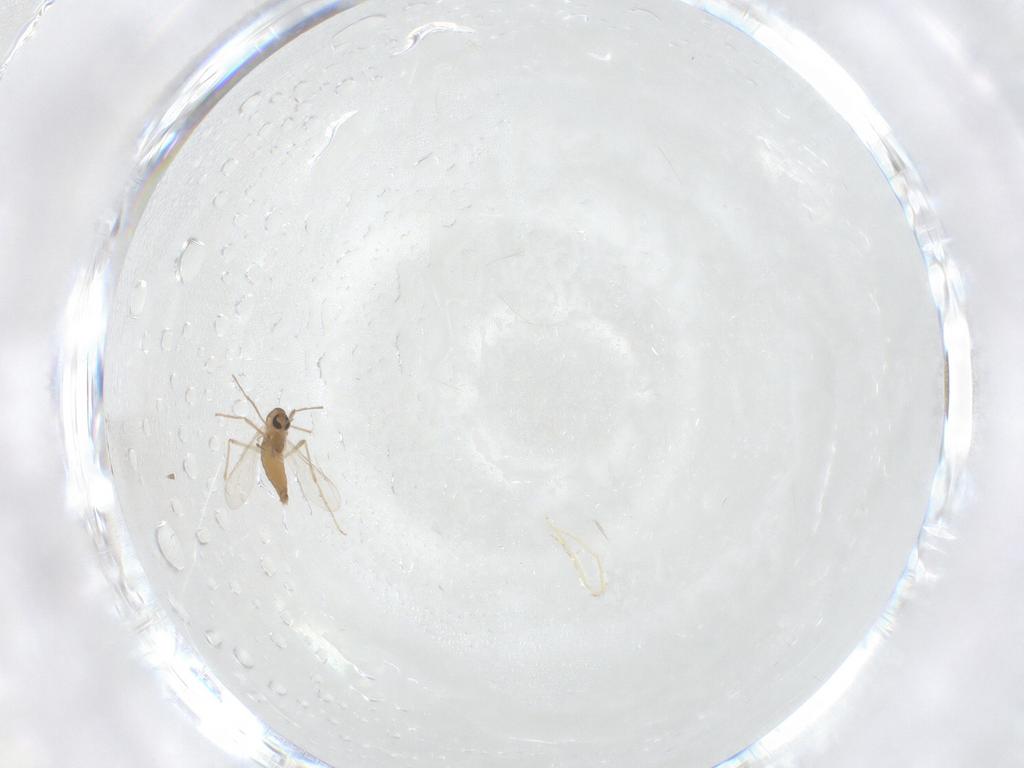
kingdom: Animalia
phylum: Arthropoda
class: Insecta
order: Diptera
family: Chironomidae
